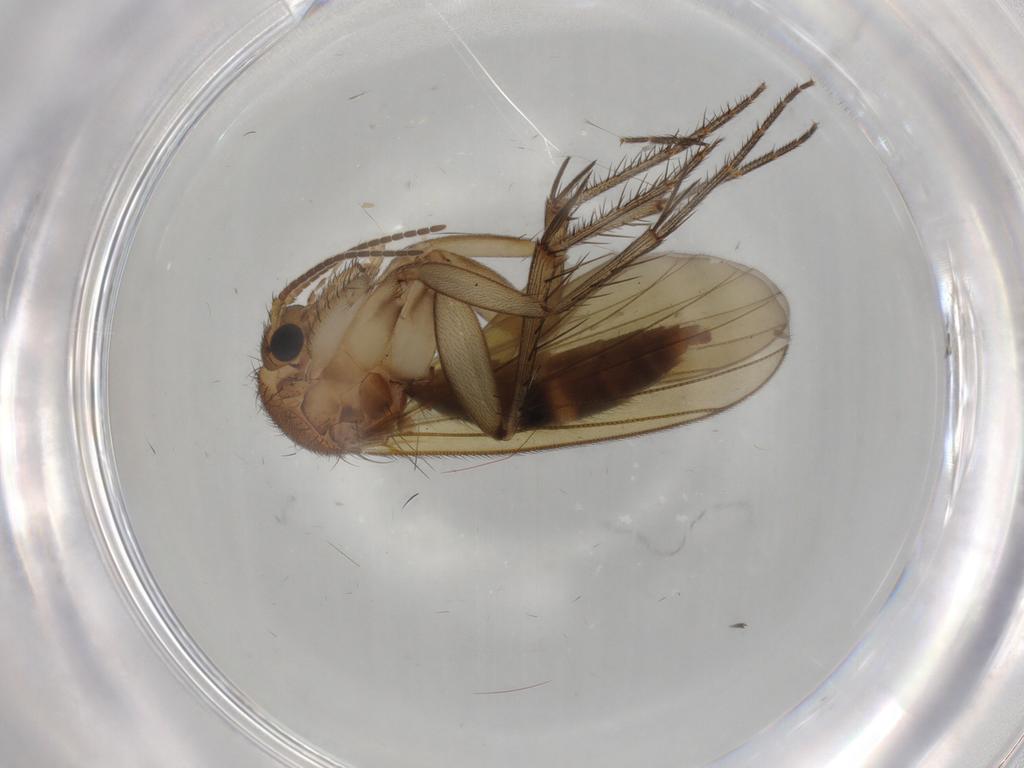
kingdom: Animalia
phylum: Arthropoda
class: Insecta
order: Diptera
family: Mycetophilidae
